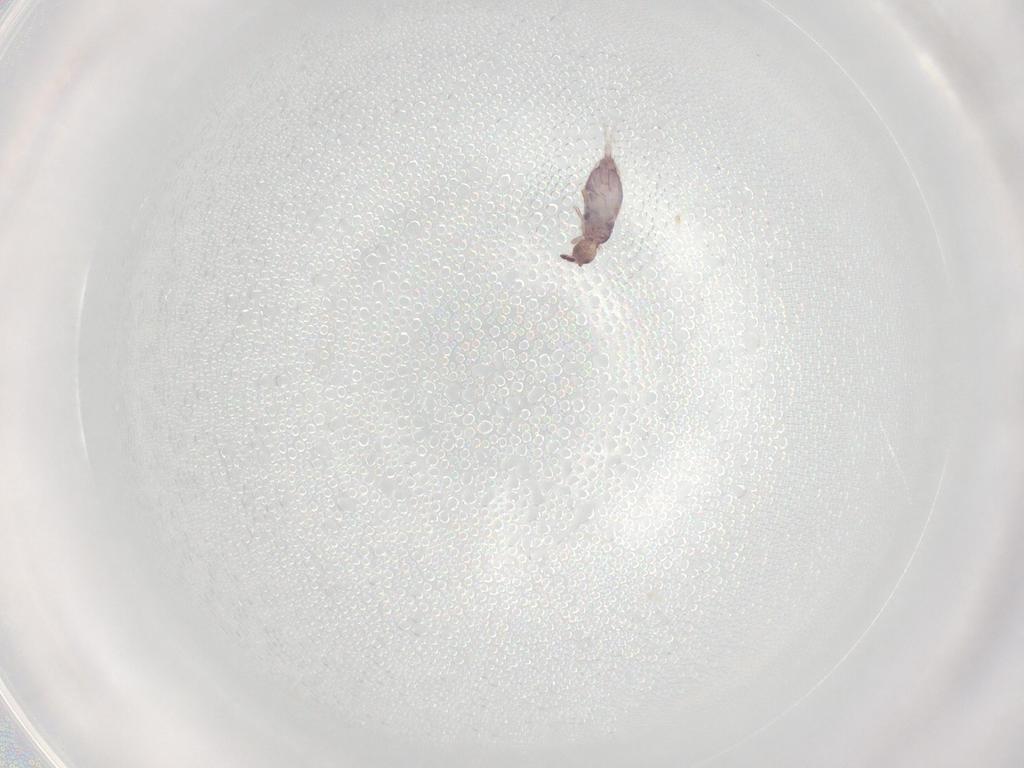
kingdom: Animalia
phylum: Arthropoda
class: Collembola
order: Entomobryomorpha
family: Entomobryidae
